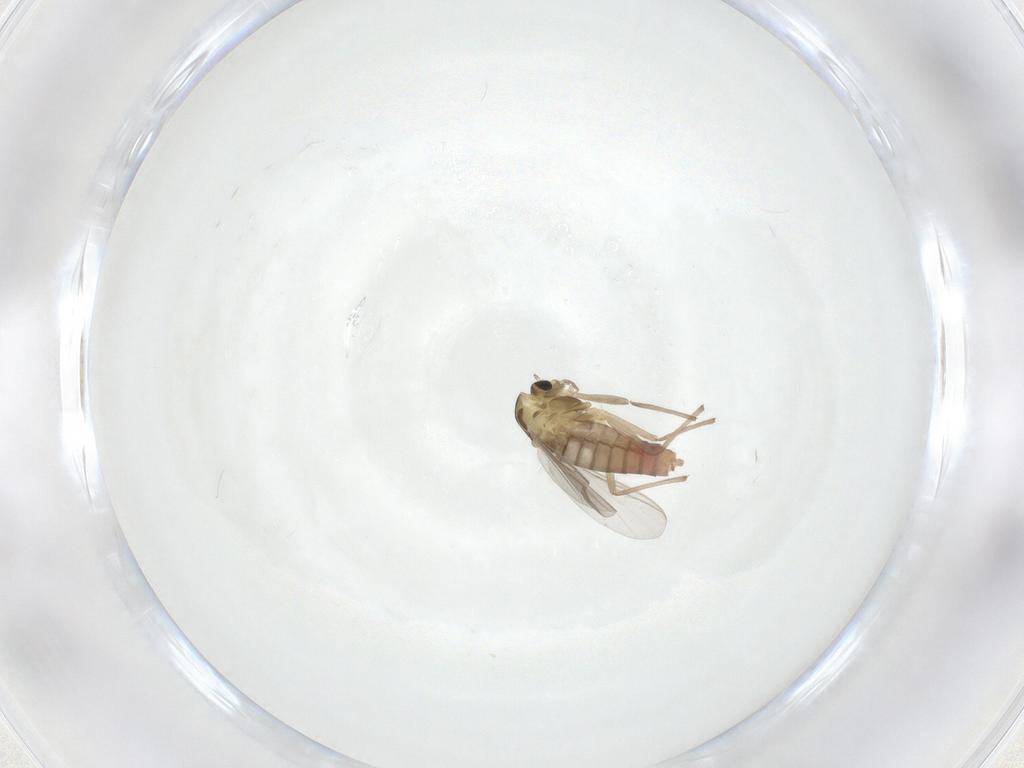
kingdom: Animalia
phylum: Arthropoda
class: Insecta
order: Diptera
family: Chironomidae
